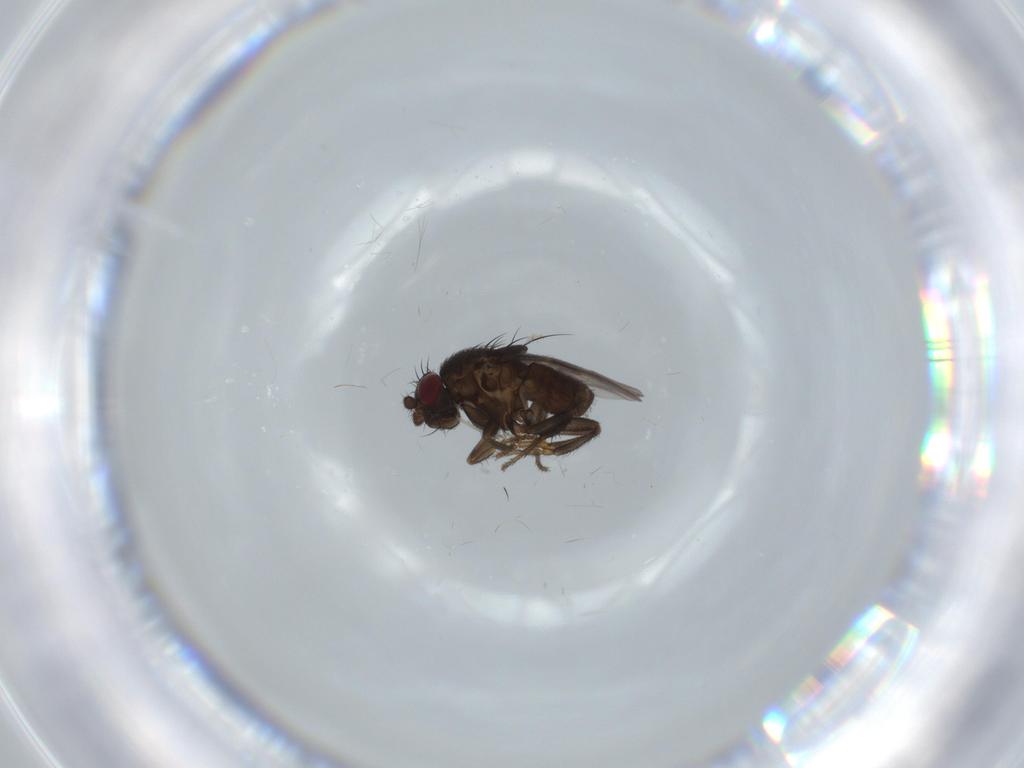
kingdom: Animalia
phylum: Arthropoda
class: Insecta
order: Diptera
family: Sphaeroceridae
